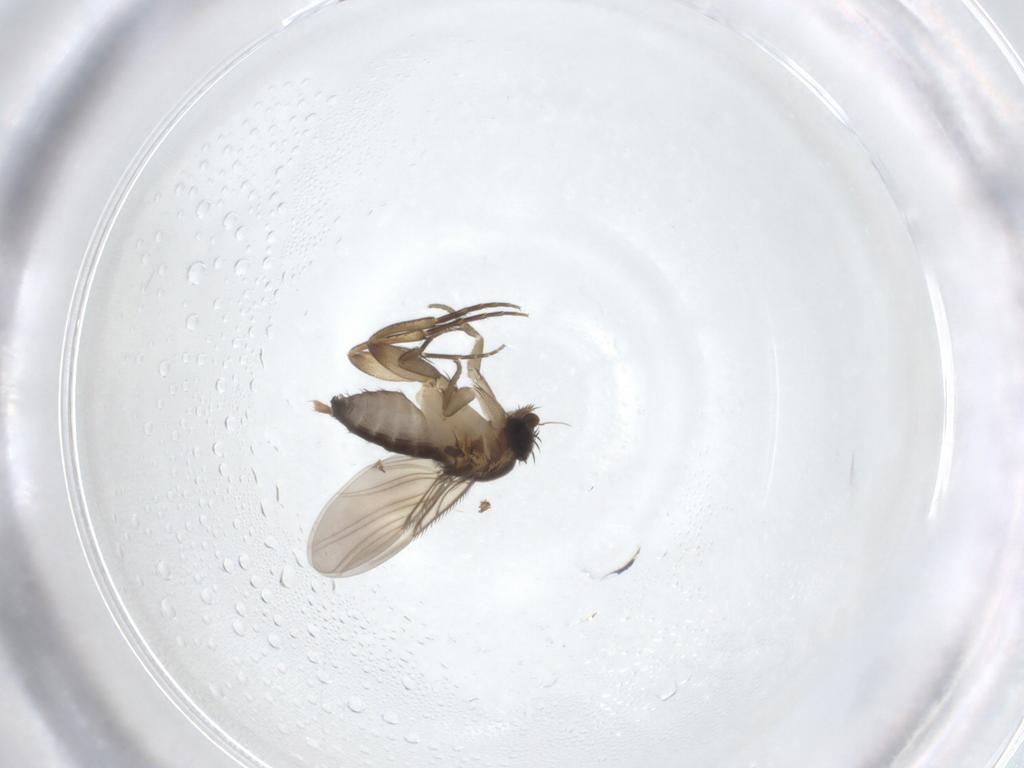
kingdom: Animalia
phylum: Arthropoda
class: Insecta
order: Diptera
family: Phoridae
